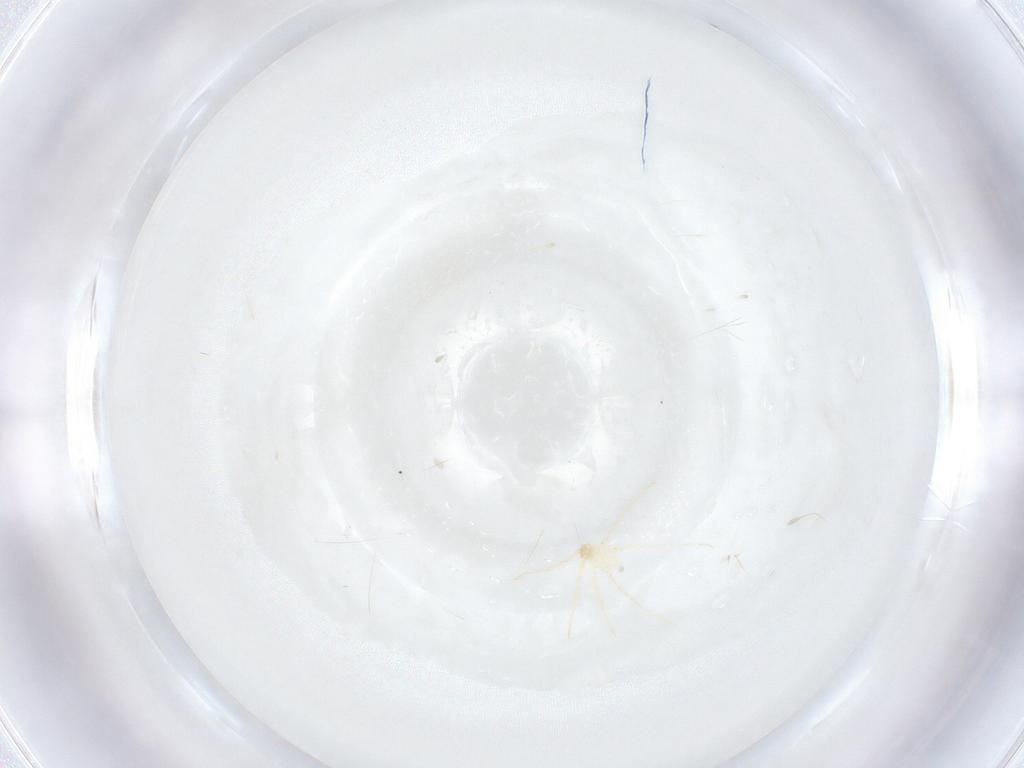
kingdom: Animalia
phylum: Arthropoda
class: Arachnida
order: Trombidiformes
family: Erythraeidae
